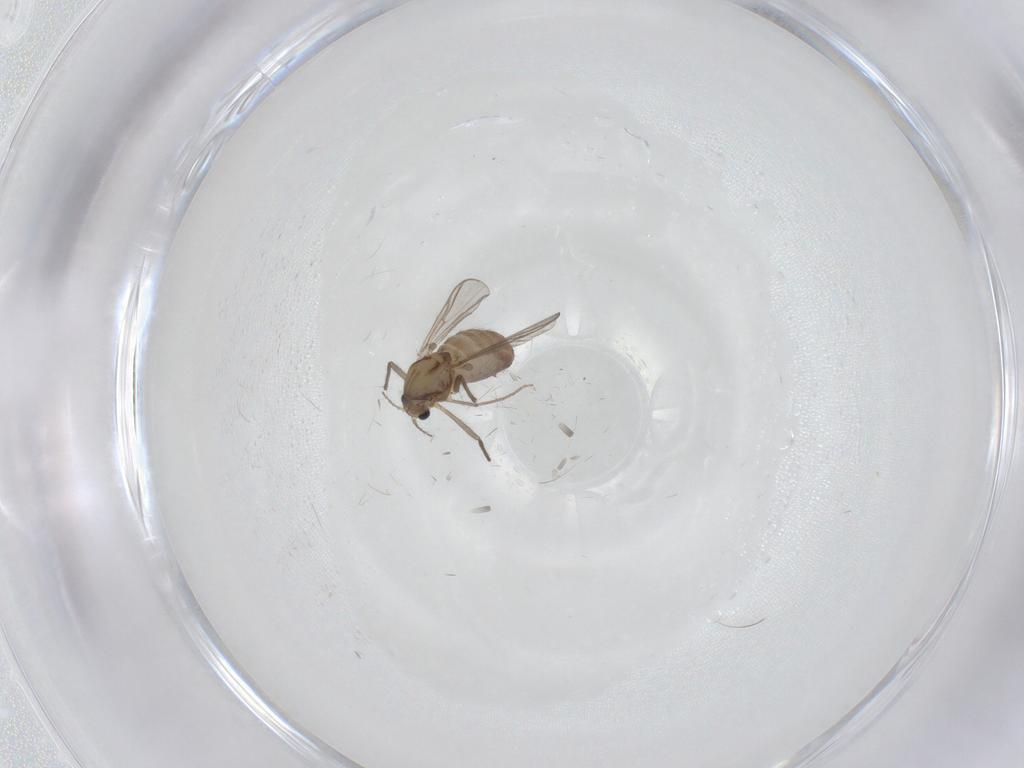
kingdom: Animalia
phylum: Arthropoda
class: Insecta
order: Diptera
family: Chironomidae
